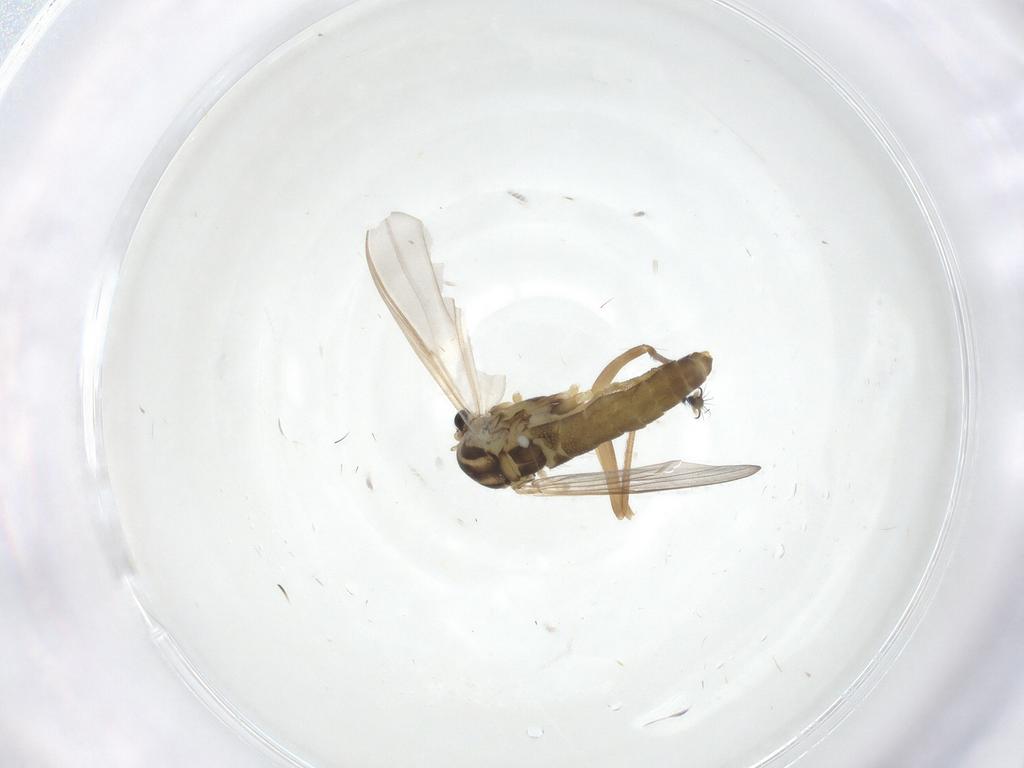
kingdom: Animalia
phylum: Arthropoda
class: Insecta
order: Diptera
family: Chironomidae
